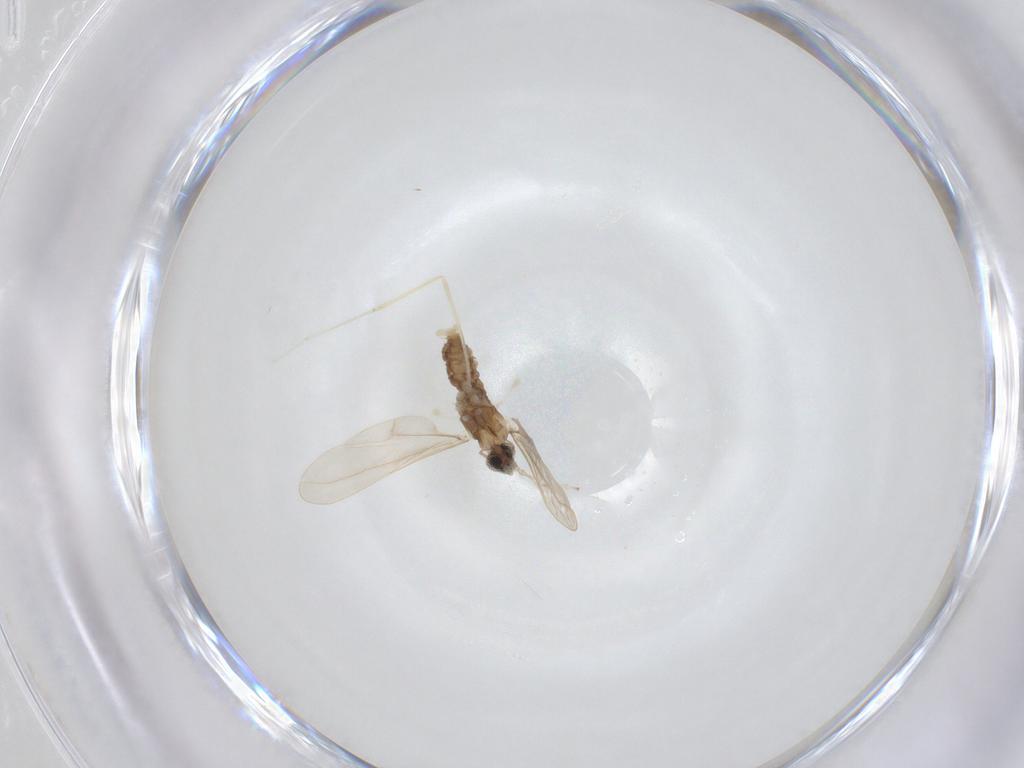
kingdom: Animalia
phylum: Arthropoda
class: Insecta
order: Diptera
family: Cecidomyiidae
